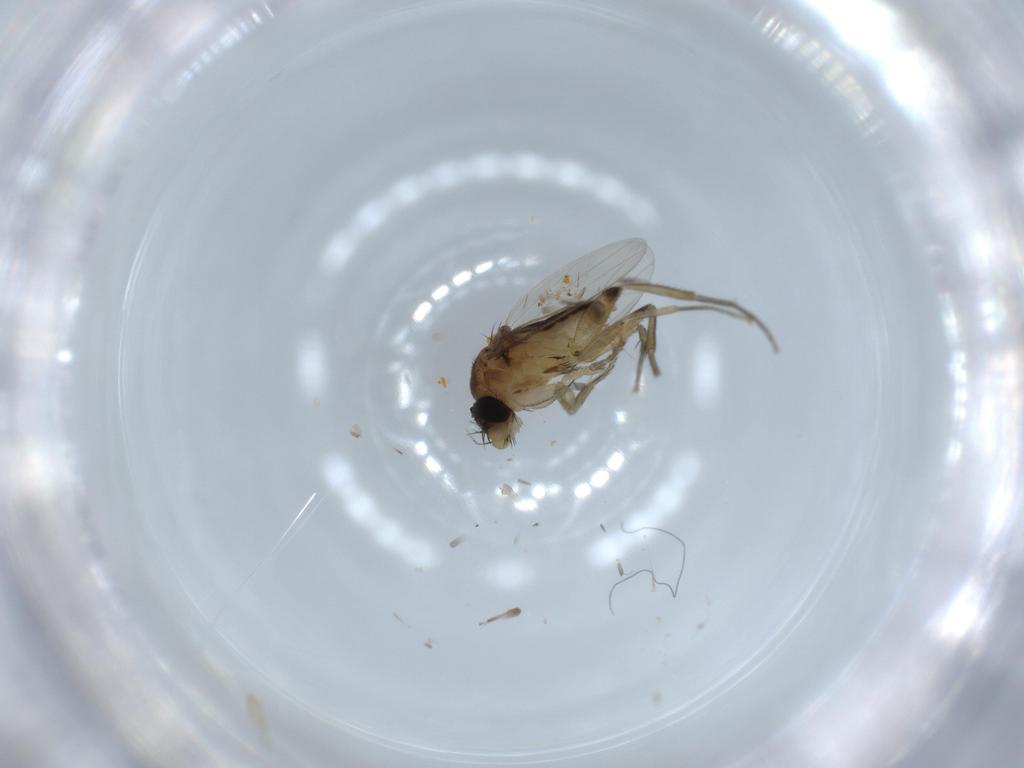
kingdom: Animalia
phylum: Arthropoda
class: Insecta
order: Diptera
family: Phoridae
